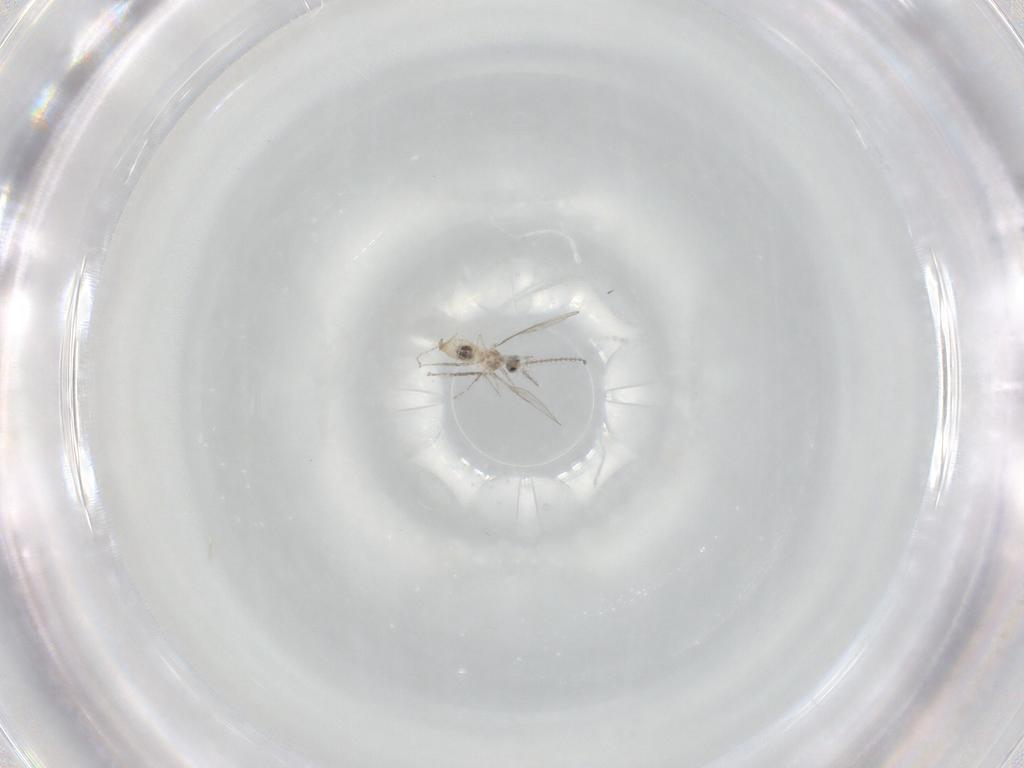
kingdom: Animalia
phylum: Arthropoda
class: Insecta
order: Diptera
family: Cecidomyiidae
